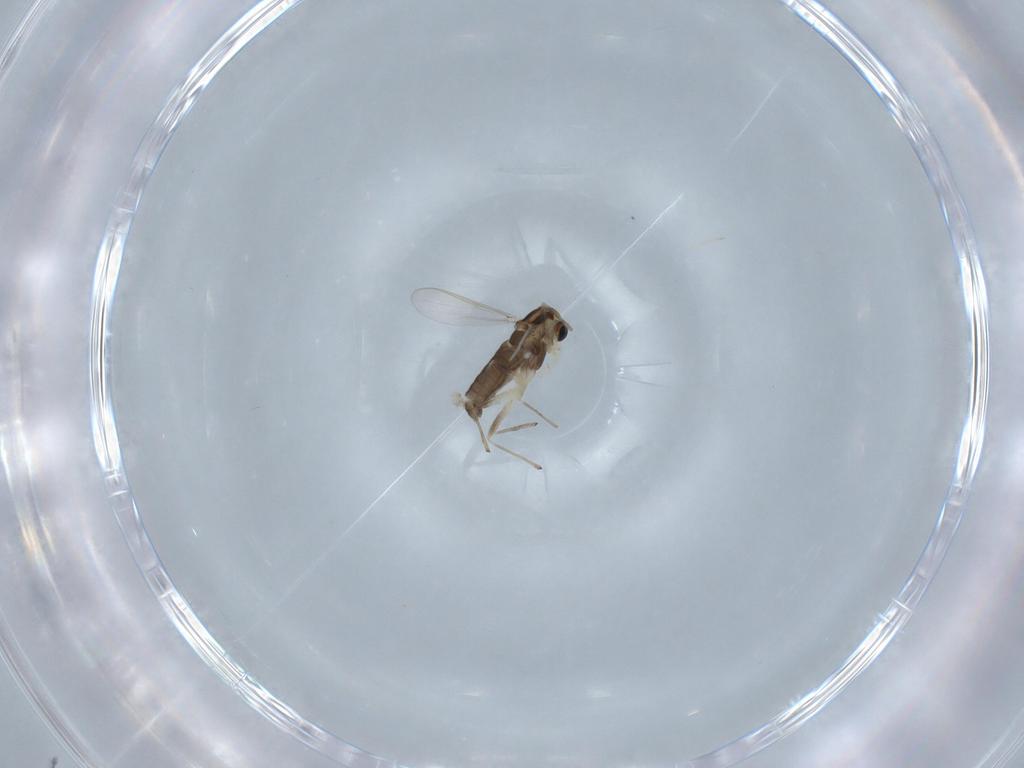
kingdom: Animalia
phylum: Arthropoda
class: Insecta
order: Diptera
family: Chironomidae
